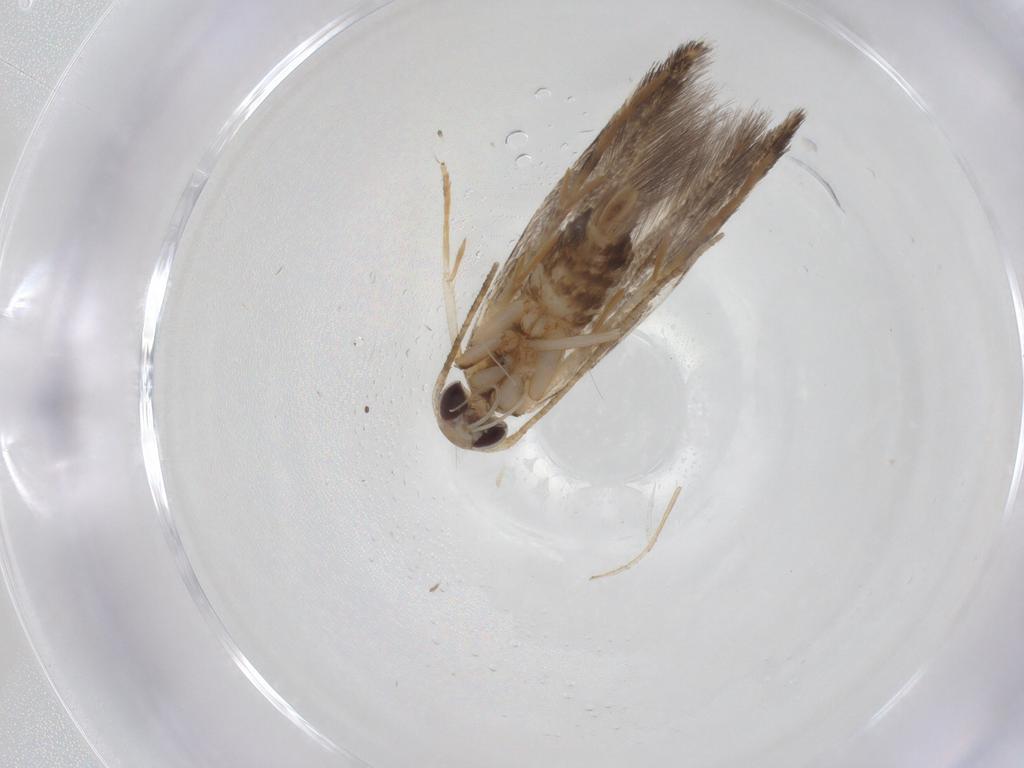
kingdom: Animalia
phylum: Arthropoda
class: Insecta
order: Lepidoptera
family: Cosmopterigidae
